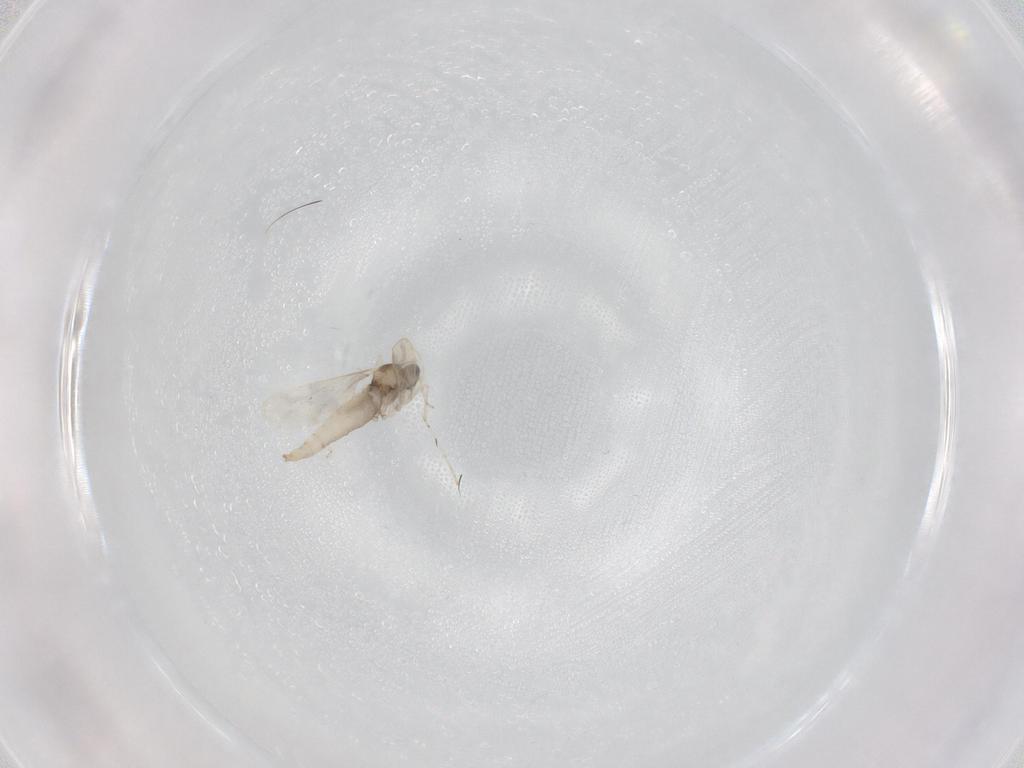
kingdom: Animalia
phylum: Arthropoda
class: Insecta
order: Diptera
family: Cecidomyiidae
